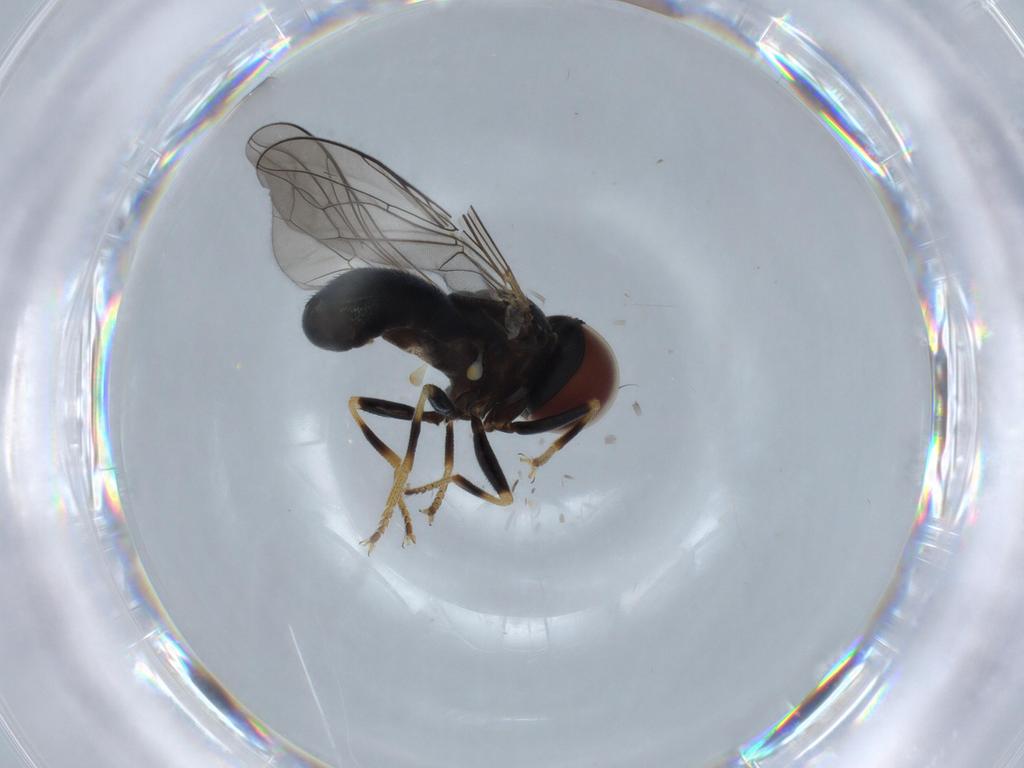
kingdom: Animalia
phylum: Arthropoda
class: Insecta
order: Diptera
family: Pipunculidae
